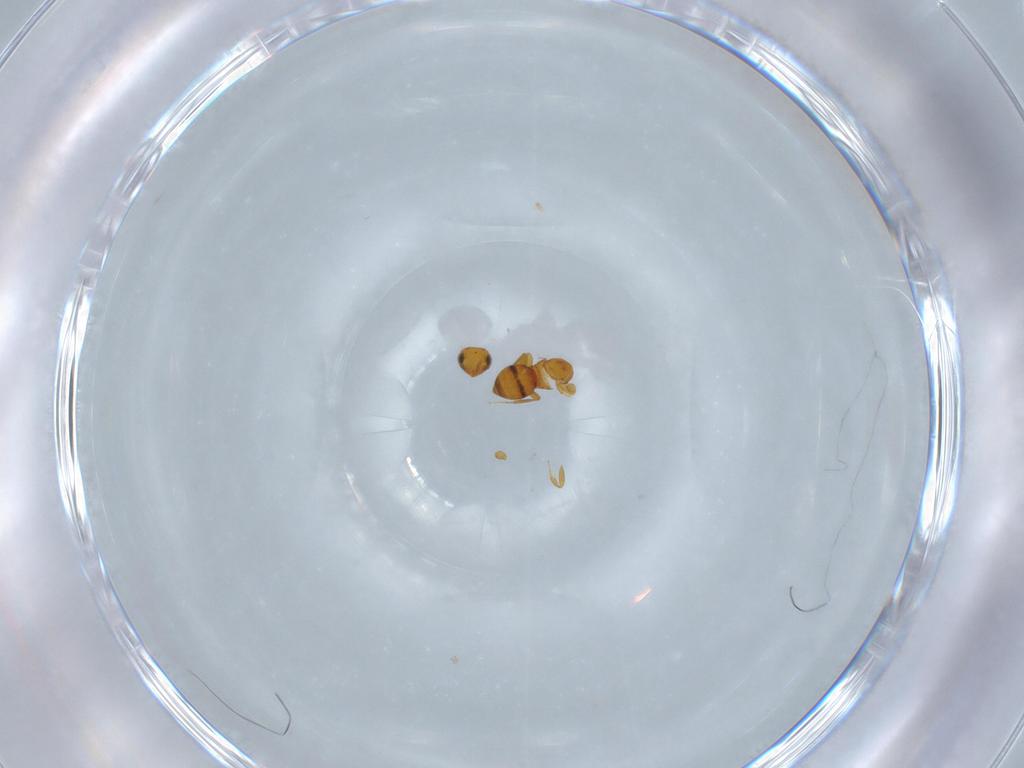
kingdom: Animalia
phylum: Arthropoda
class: Insecta
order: Hymenoptera
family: Scelionidae
